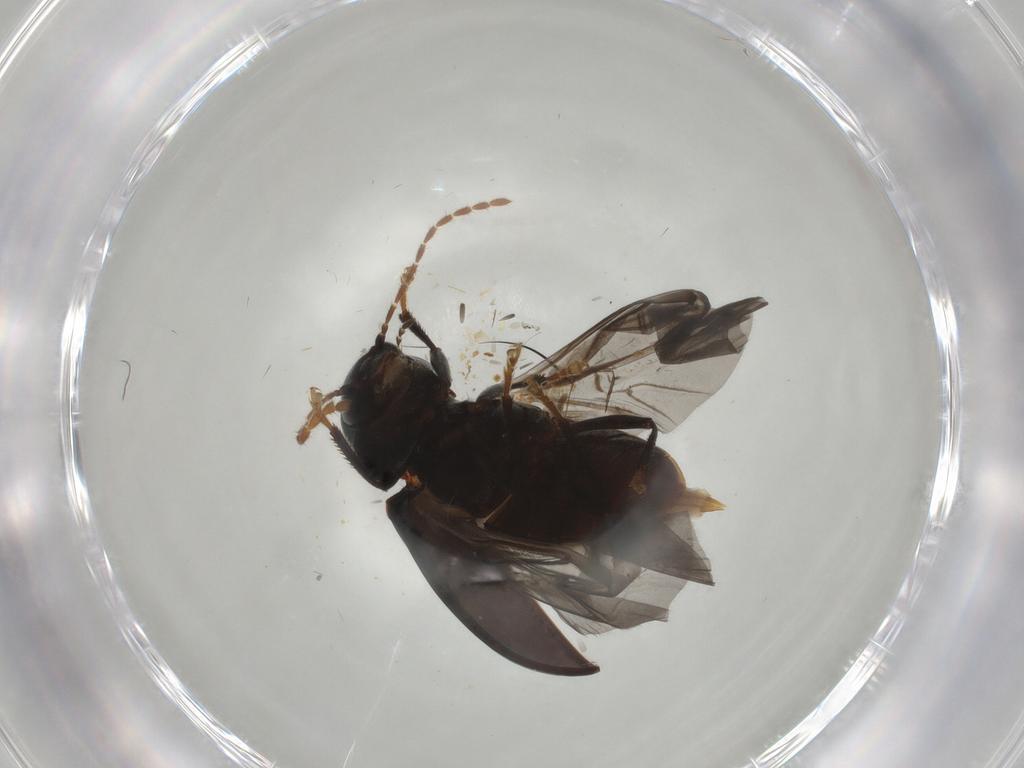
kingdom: Animalia
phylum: Arthropoda
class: Insecta
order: Coleoptera
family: Ptilodactylidae
